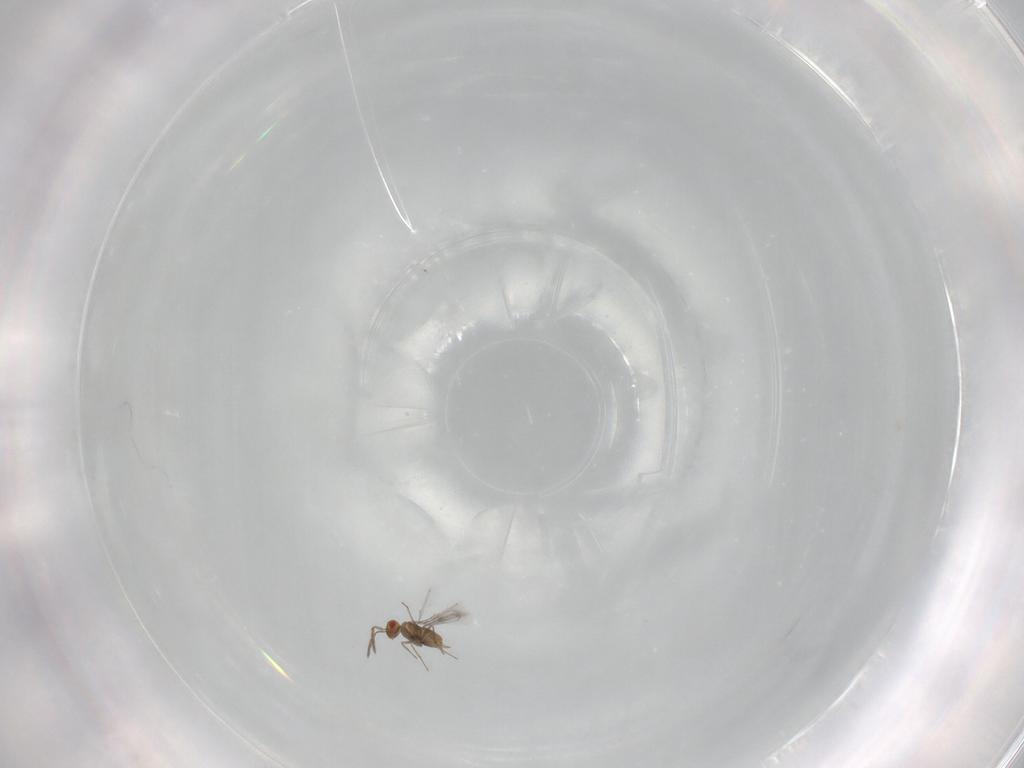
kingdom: Animalia
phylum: Arthropoda
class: Insecta
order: Hymenoptera
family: Trichogrammatidae
